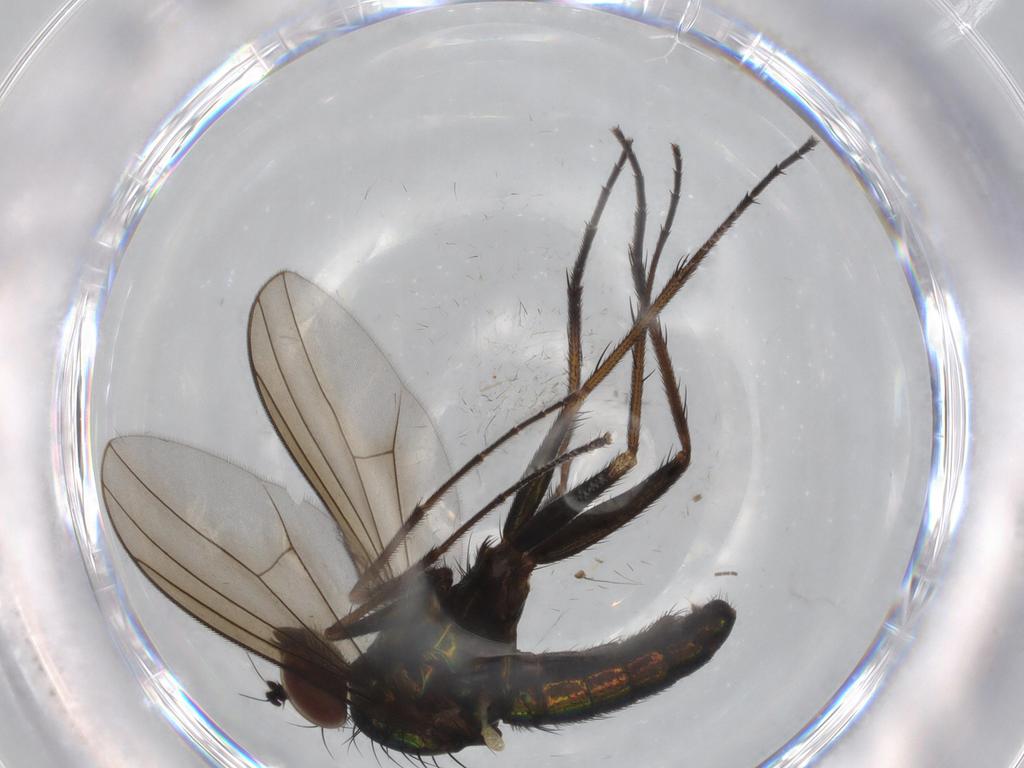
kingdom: Animalia
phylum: Arthropoda
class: Insecta
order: Diptera
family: Dolichopodidae
